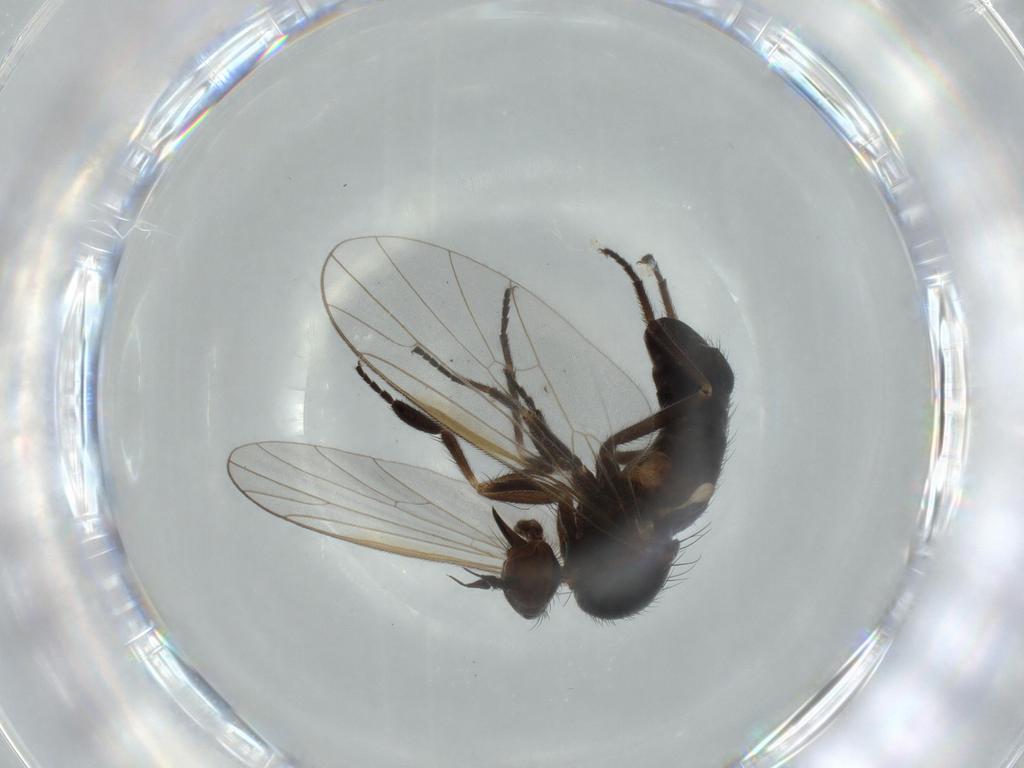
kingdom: Animalia
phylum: Arthropoda
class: Insecta
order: Diptera
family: Empididae
